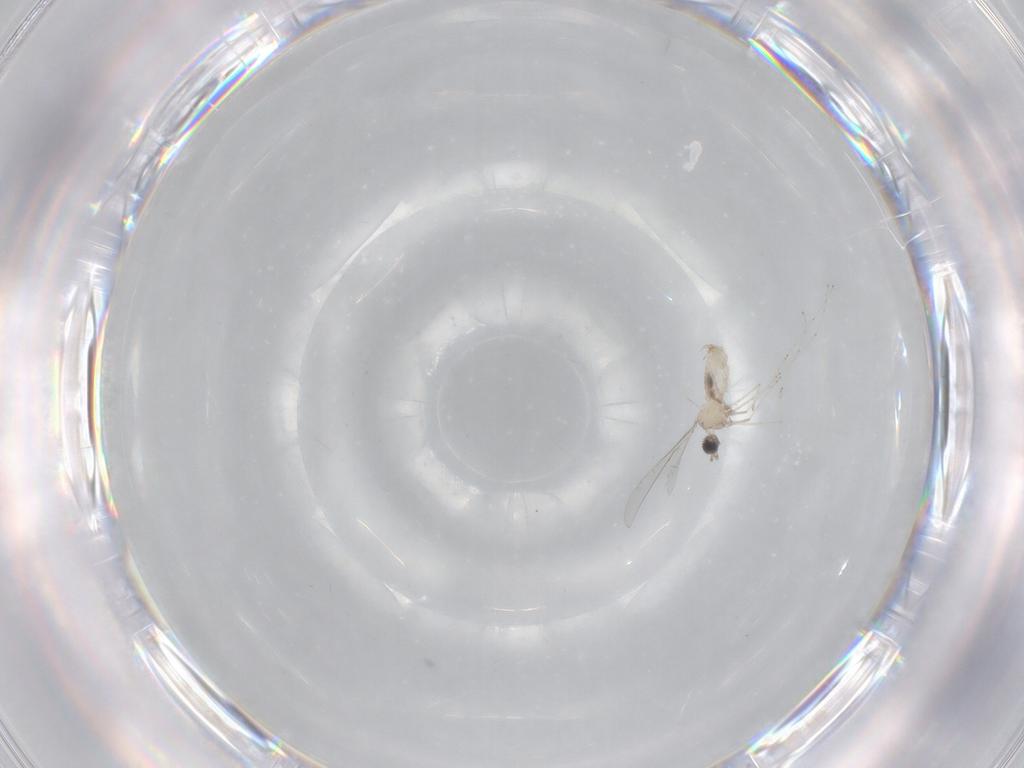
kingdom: Animalia
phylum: Arthropoda
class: Insecta
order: Diptera
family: Cecidomyiidae
